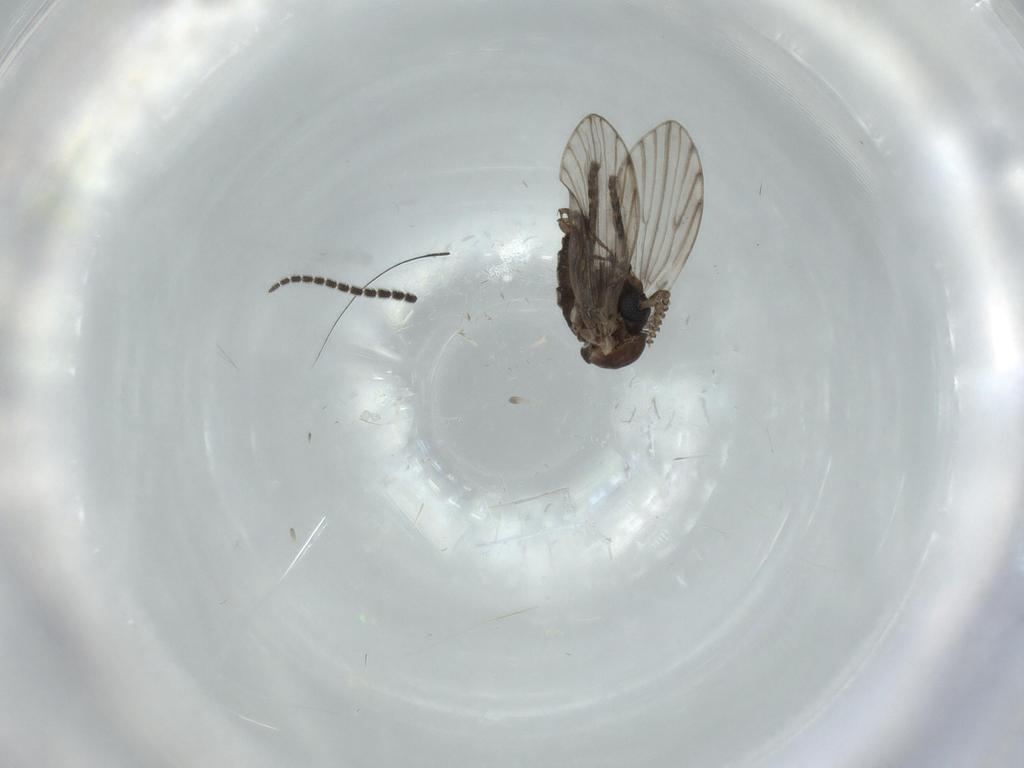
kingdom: Animalia
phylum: Arthropoda
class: Insecta
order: Diptera
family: Psychodidae
